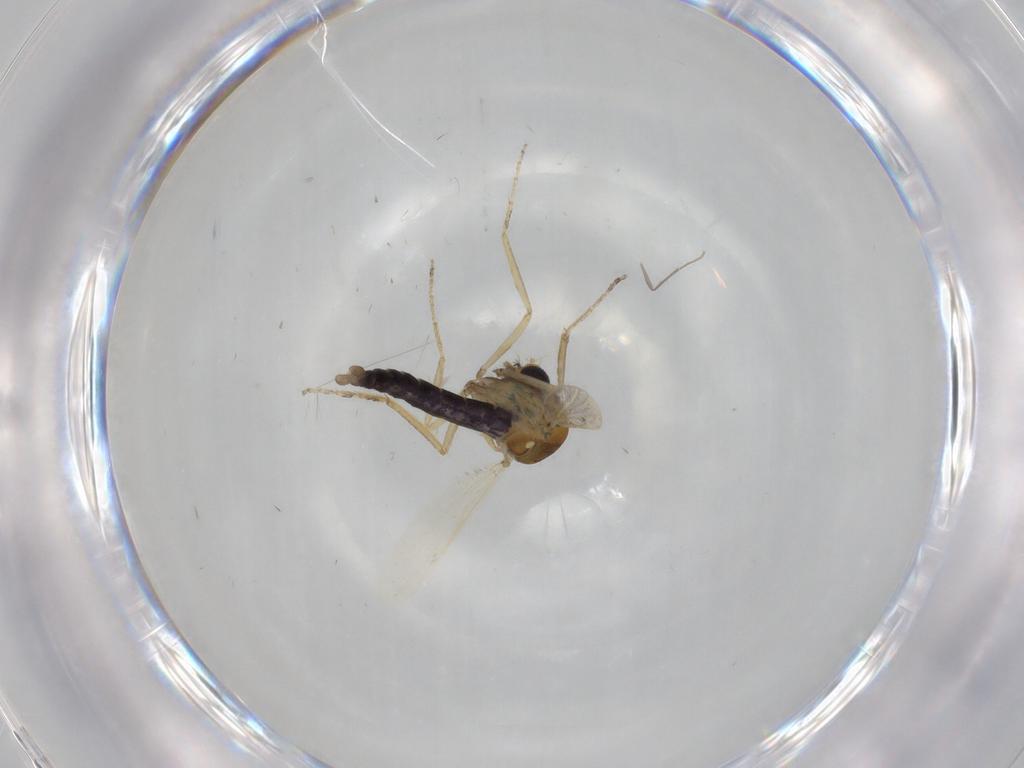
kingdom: Animalia
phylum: Arthropoda
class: Insecta
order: Diptera
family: Ceratopogonidae
